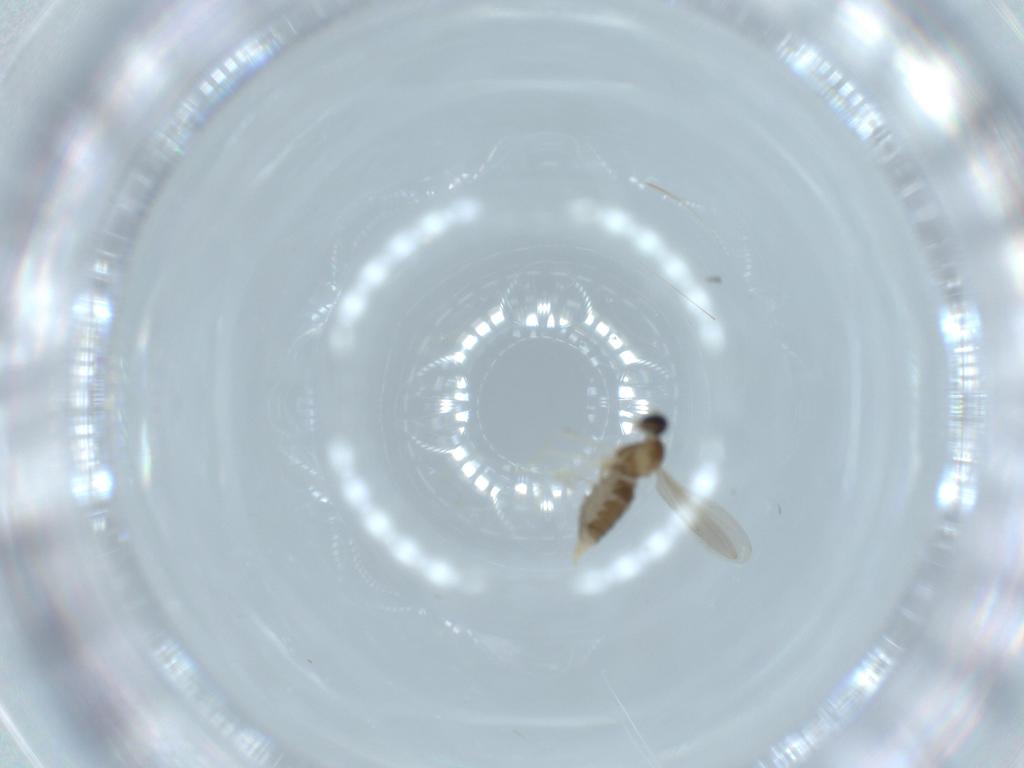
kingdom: Animalia
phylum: Arthropoda
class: Insecta
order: Diptera
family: Cecidomyiidae
